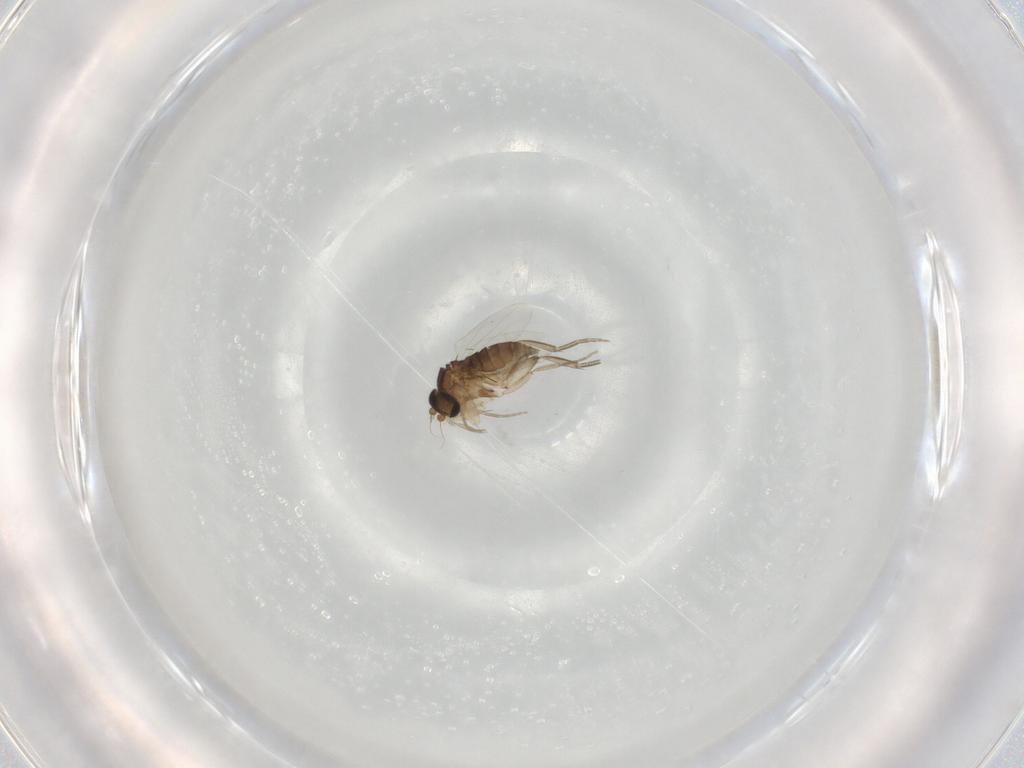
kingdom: Animalia
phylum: Arthropoda
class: Insecta
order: Diptera
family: Phoridae
